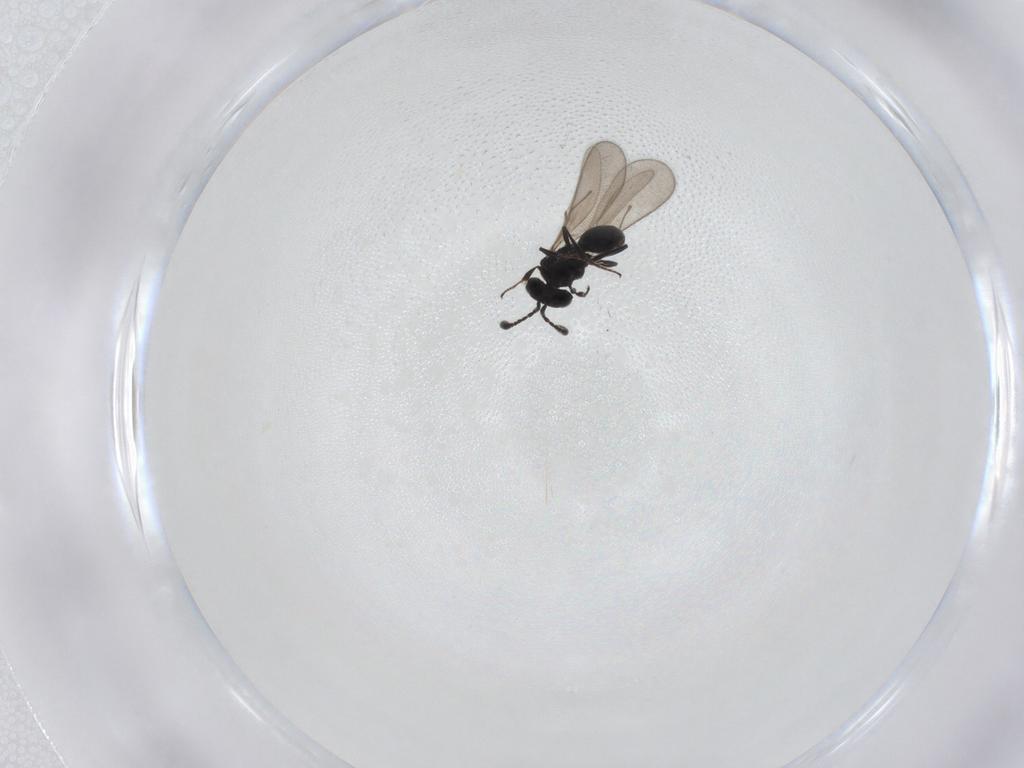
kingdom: Animalia
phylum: Arthropoda
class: Insecta
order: Hymenoptera
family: Scelionidae
